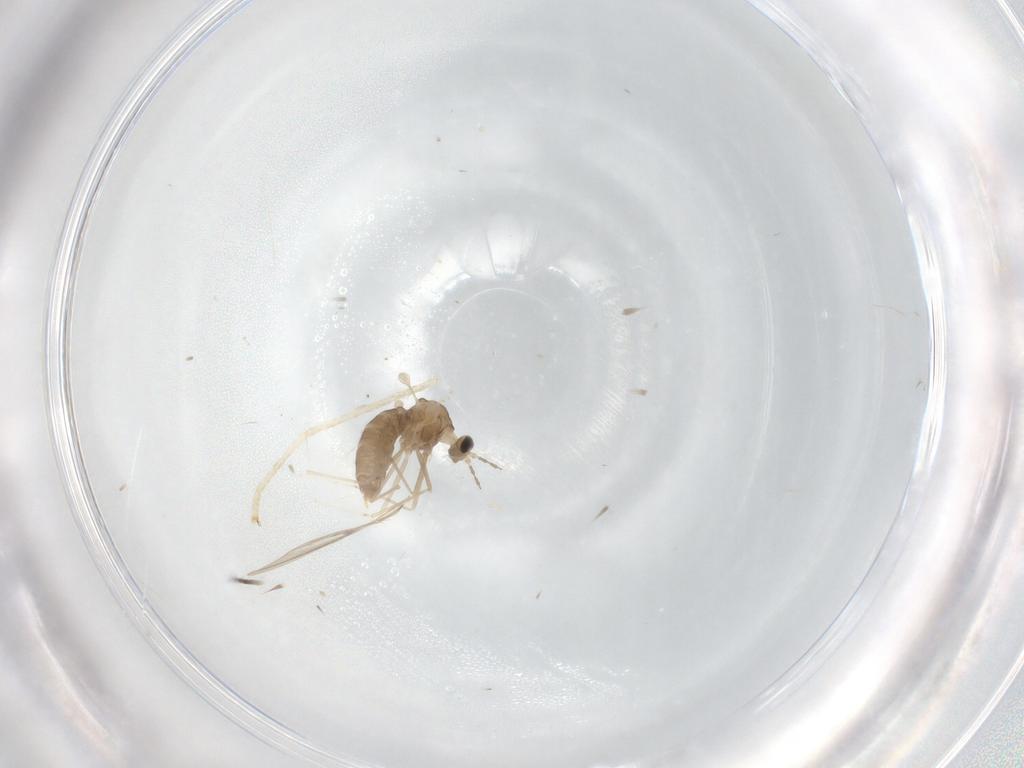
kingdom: Animalia
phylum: Arthropoda
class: Insecta
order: Diptera
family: Cecidomyiidae
